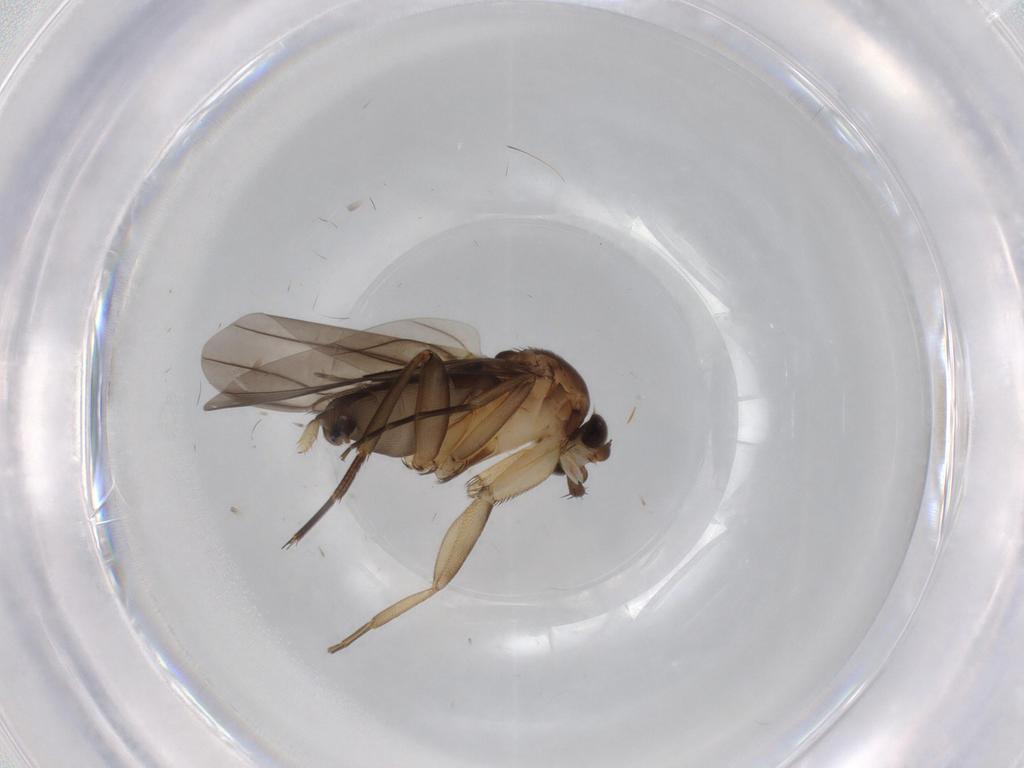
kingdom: Animalia
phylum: Arthropoda
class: Insecta
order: Diptera
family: Phoridae
